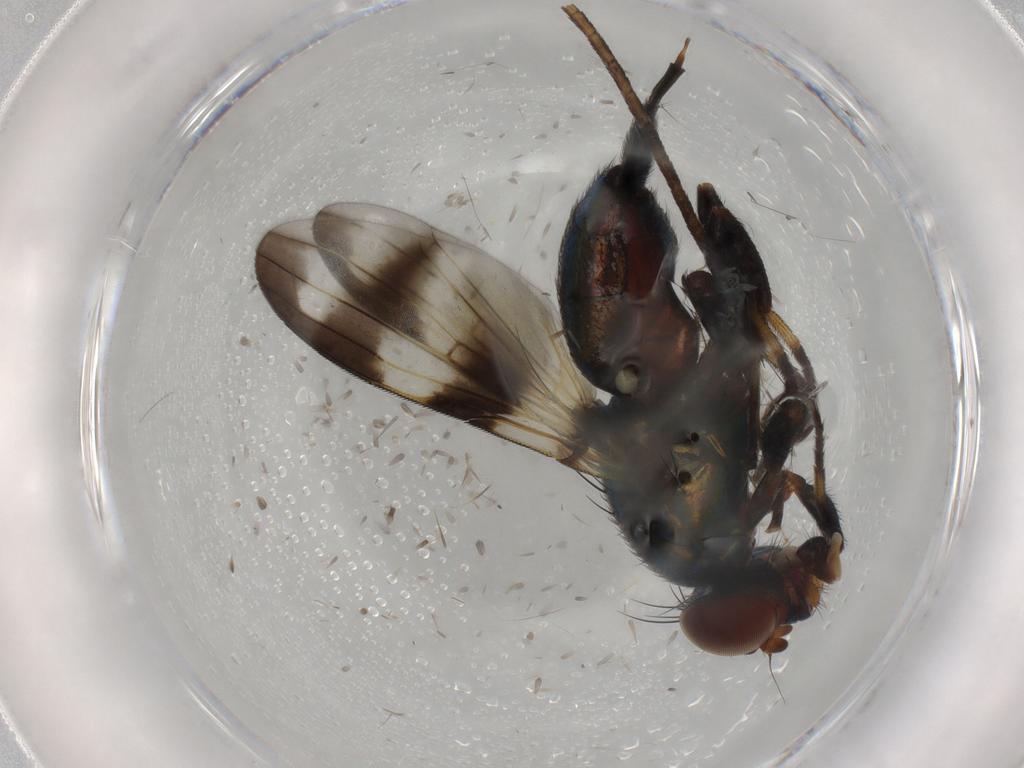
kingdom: Animalia
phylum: Arthropoda
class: Insecta
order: Diptera
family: Ulidiidae
